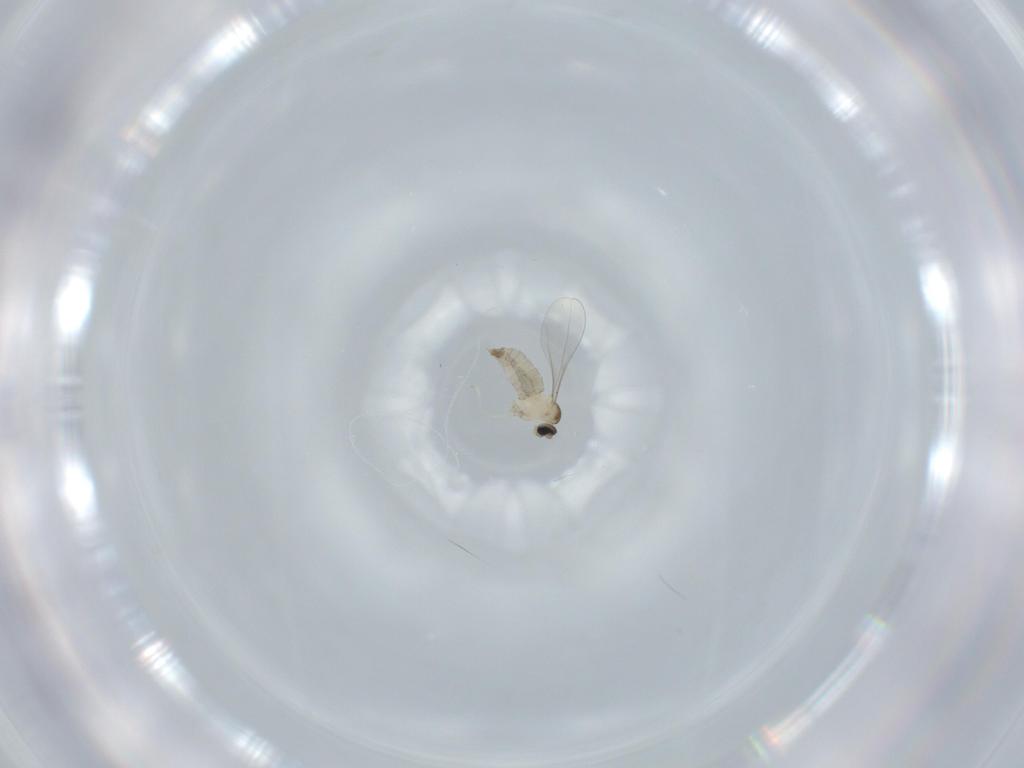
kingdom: Animalia
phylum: Arthropoda
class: Insecta
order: Diptera
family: Dolichopodidae
